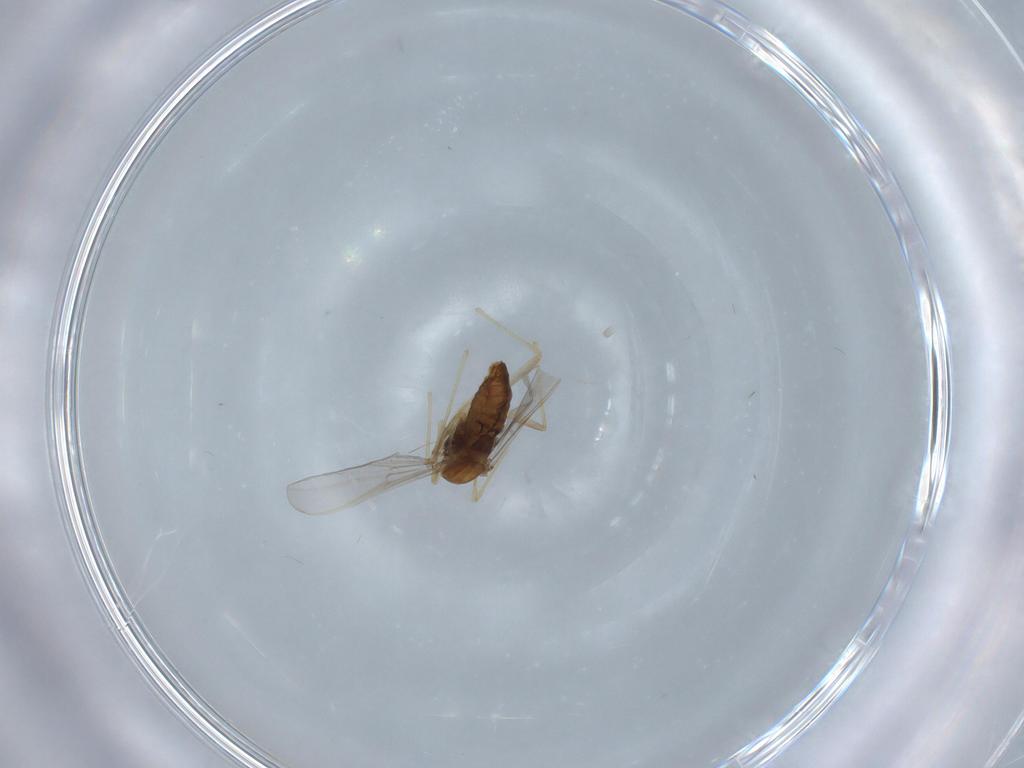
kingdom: Animalia
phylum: Arthropoda
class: Insecta
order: Diptera
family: Chironomidae
